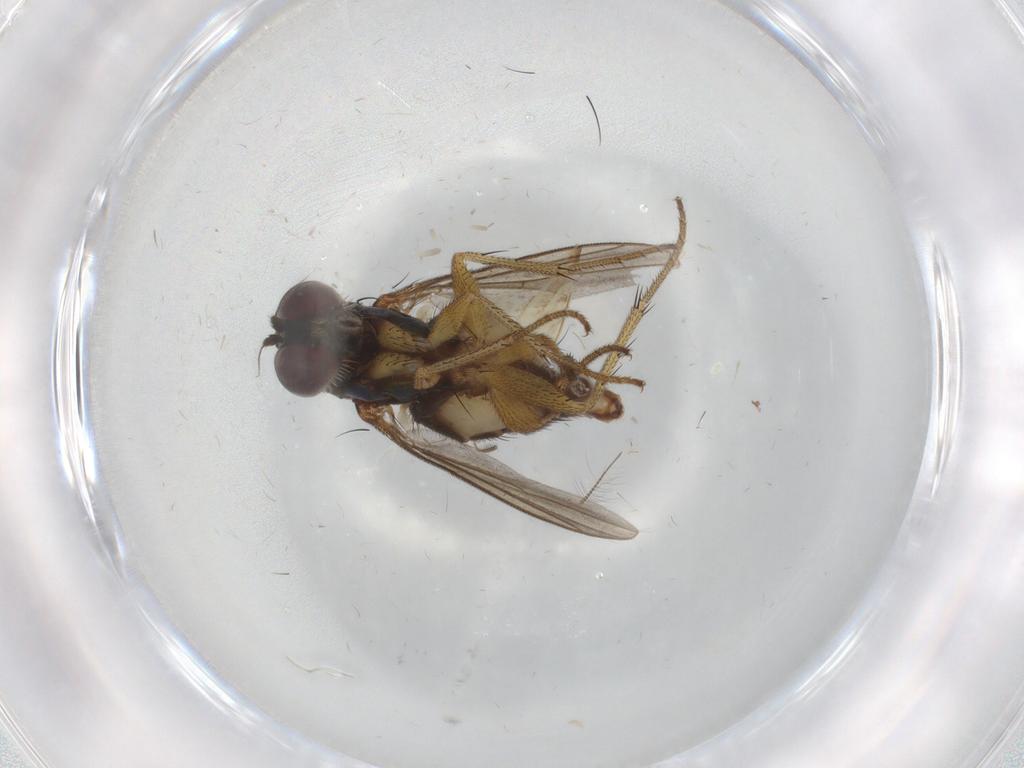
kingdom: Animalia
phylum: Arthropoda
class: Insecta
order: Diptera
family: Dolichopodidae
